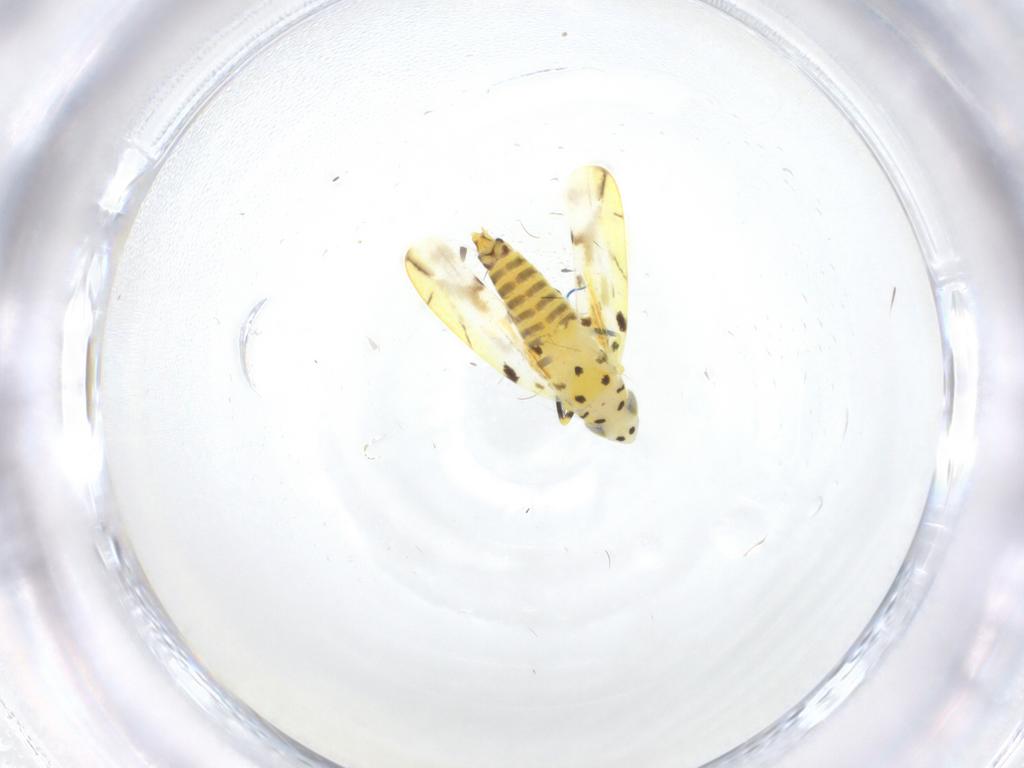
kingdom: Animalia
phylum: Arthropoda
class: Insecta
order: Hemiptera
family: Cicadellidae
